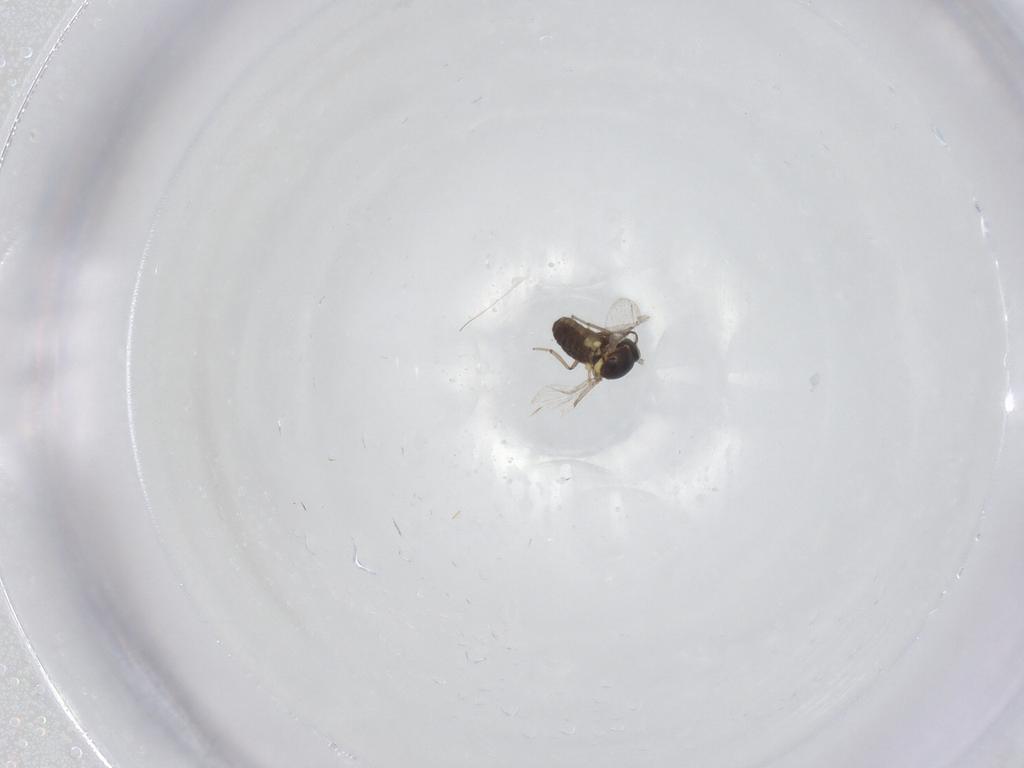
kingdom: Animalia
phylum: Arthropoda
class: Insecta
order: Diptera
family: Ceratopogonidae
